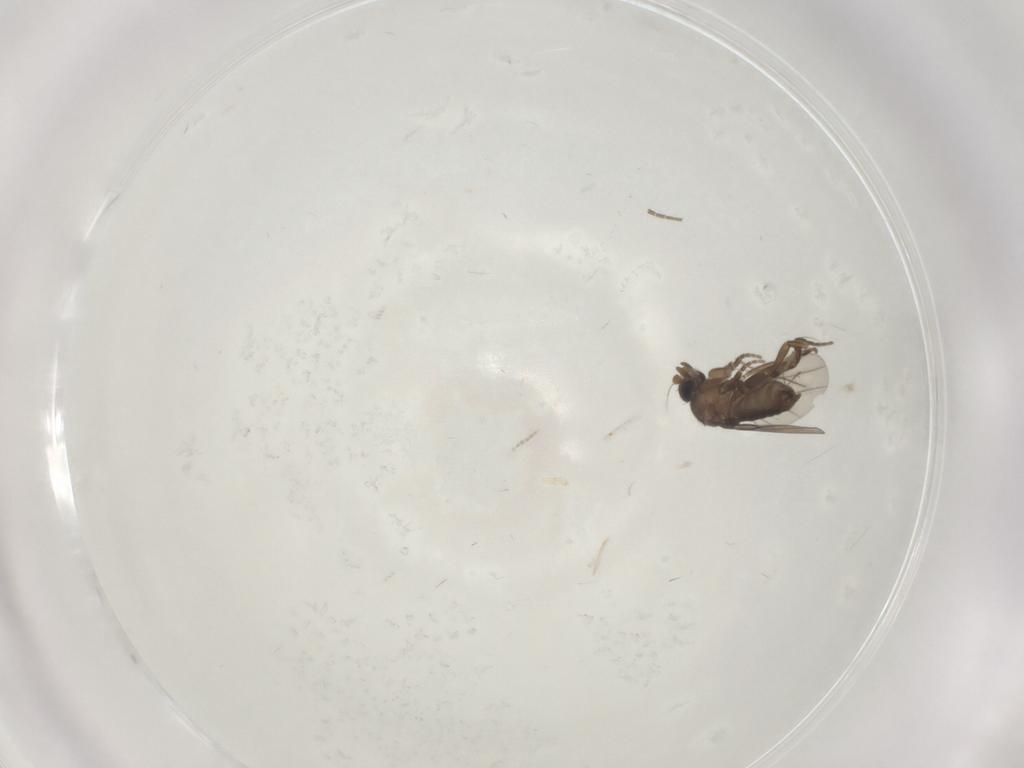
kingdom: Animalia
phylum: Arthropoda
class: Insecta
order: Diptera
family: Phoridae
